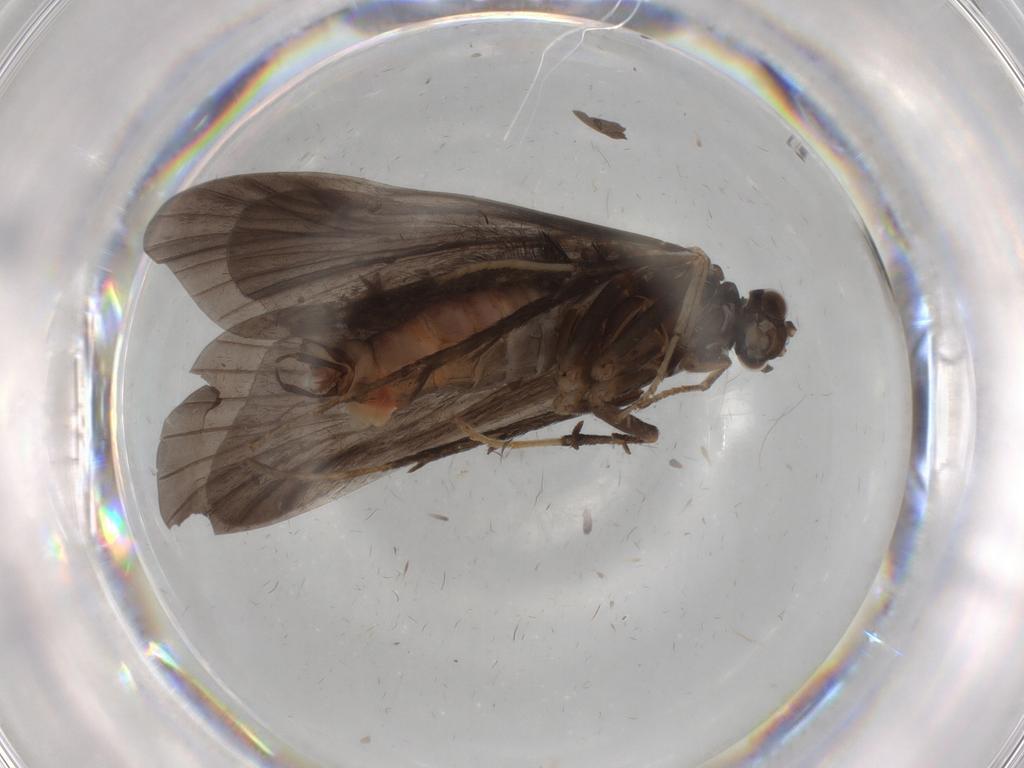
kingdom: Animalia
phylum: Arthropoda
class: Insecta
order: Trichoptera
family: Hydropsychidae
